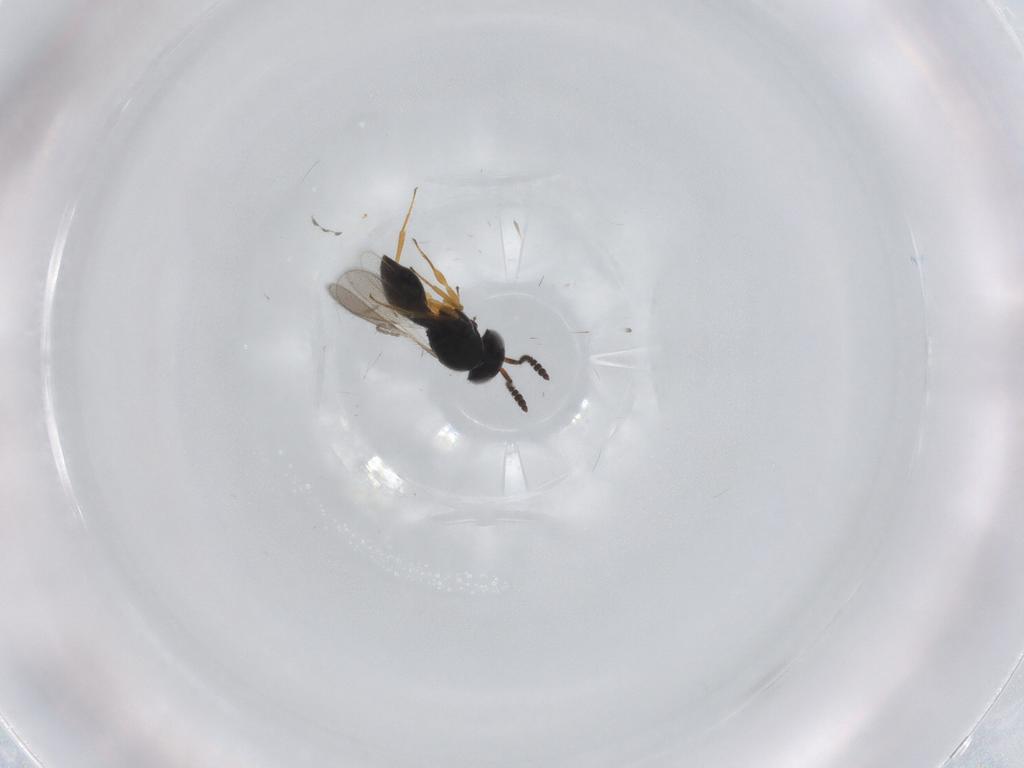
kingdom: Animalia
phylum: Arthropoda
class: Insecta
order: Hymenoptera
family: Scelionidae
